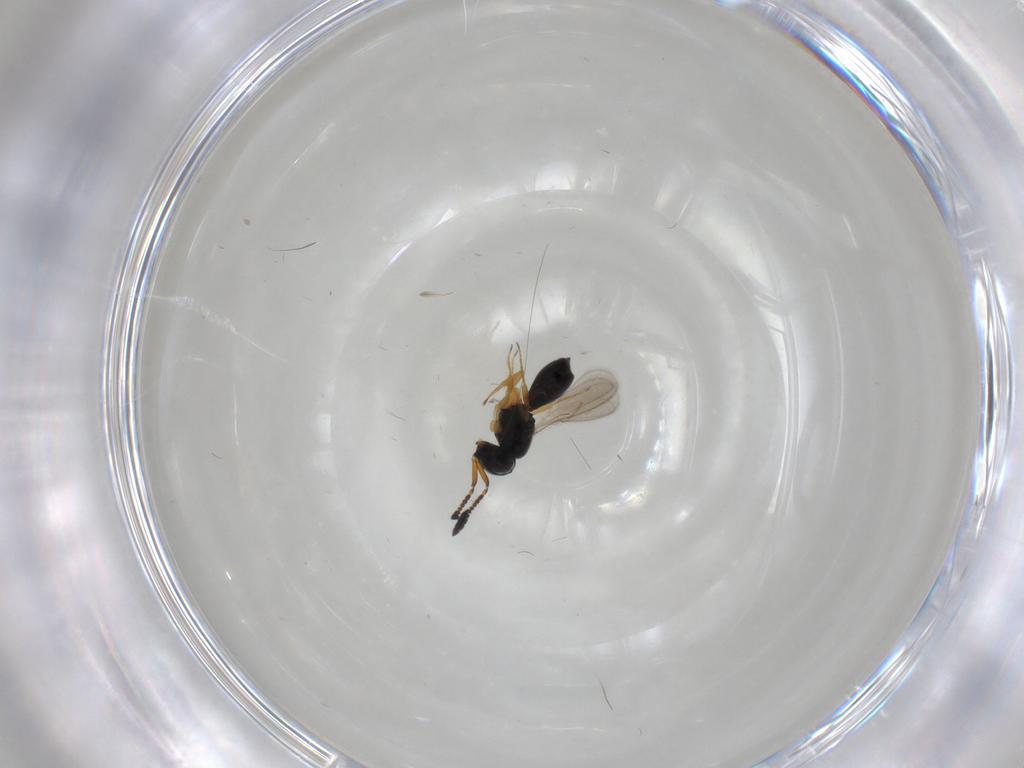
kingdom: Animalia
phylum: Arthropoda
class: Insecta
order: Hymenoptera
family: Scelionidae
